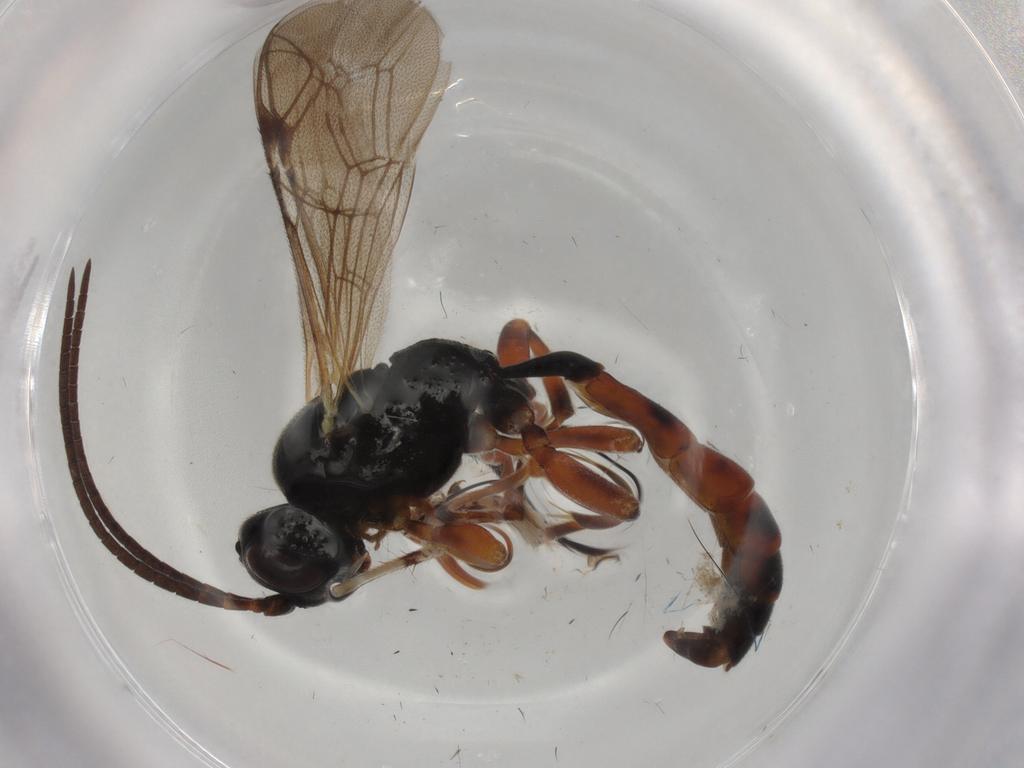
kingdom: Animalia
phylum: Arthropoda
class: Insecta
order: Hymenoptera
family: Ichneumonidae
